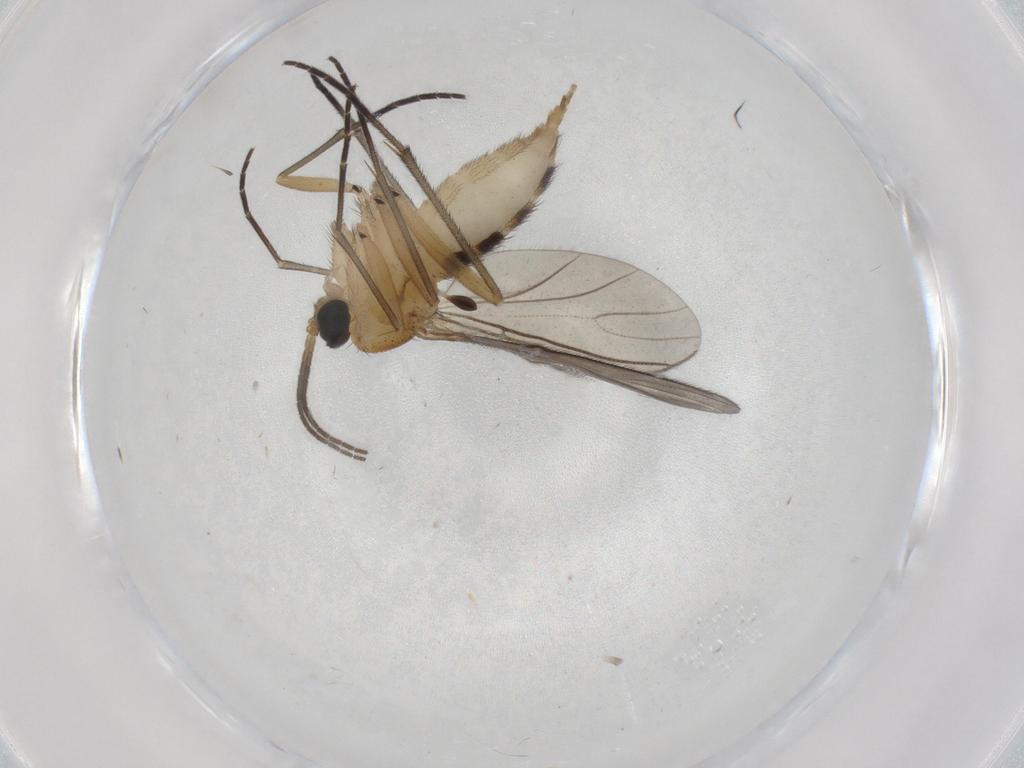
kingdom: Animalia
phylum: Arthropoda
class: Insecta
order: Diptera
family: Sciaridae
